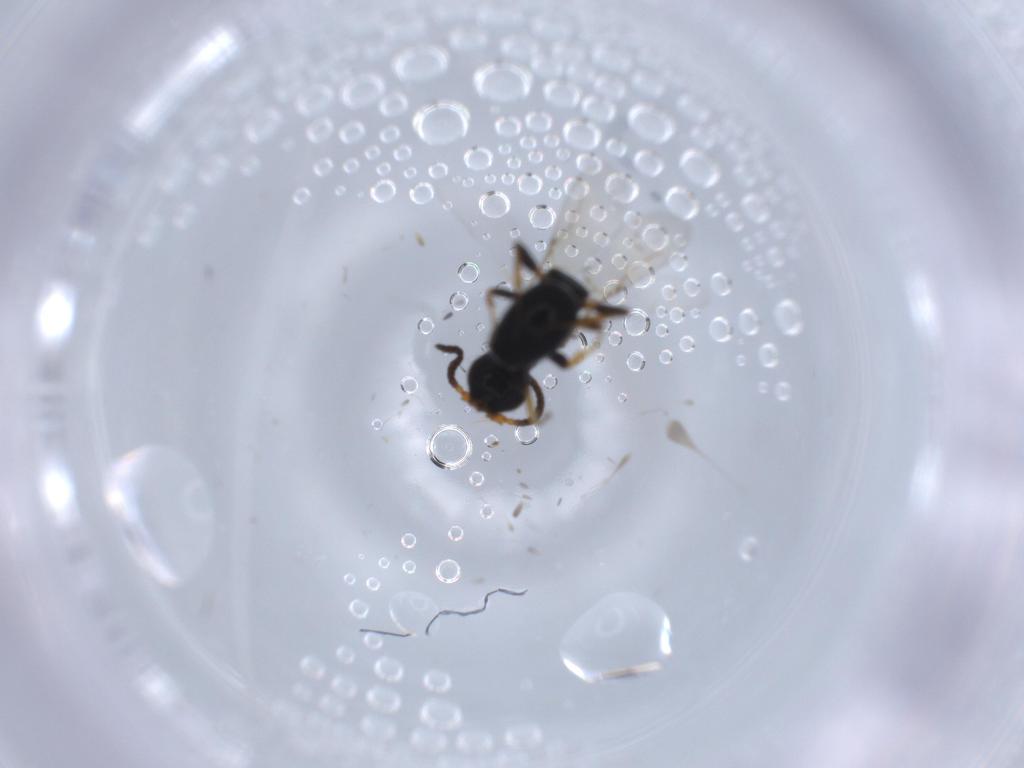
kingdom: Animalia
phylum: Arthropoda
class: Insecta
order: Hymenoptera
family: Bethylidae
